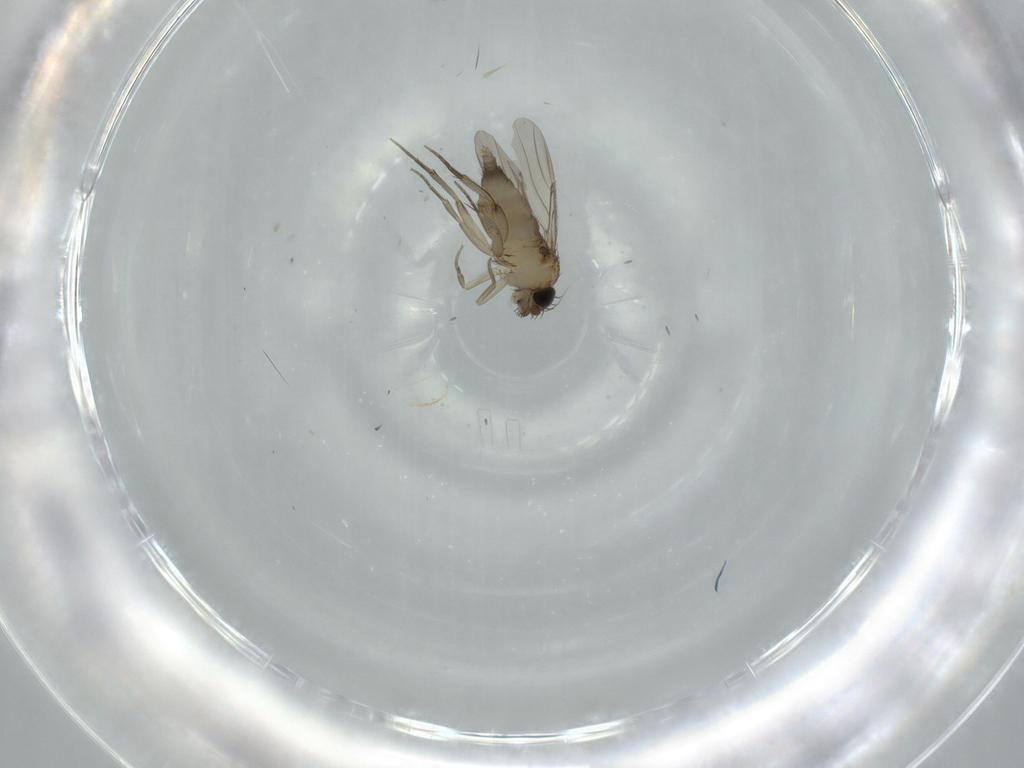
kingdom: Animalia
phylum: Arthropoda
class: Insecta
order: Diptera
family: Phoridae
